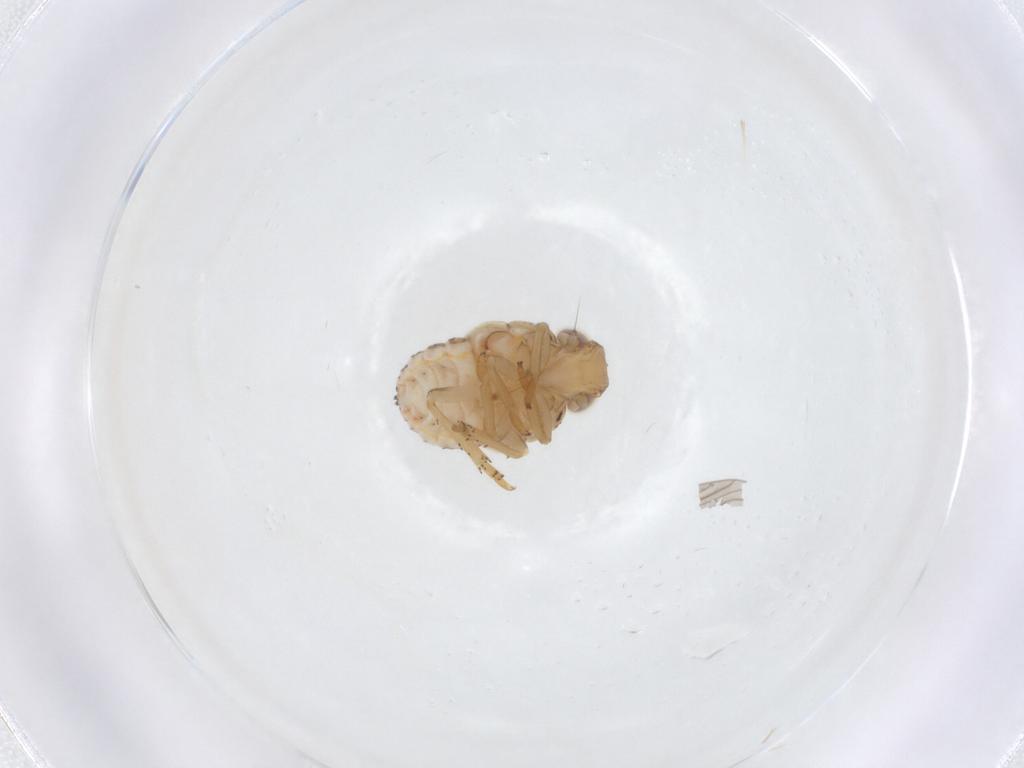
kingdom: Animalia
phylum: Arthropoda
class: Insecta
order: Hemiptera
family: Issidae
